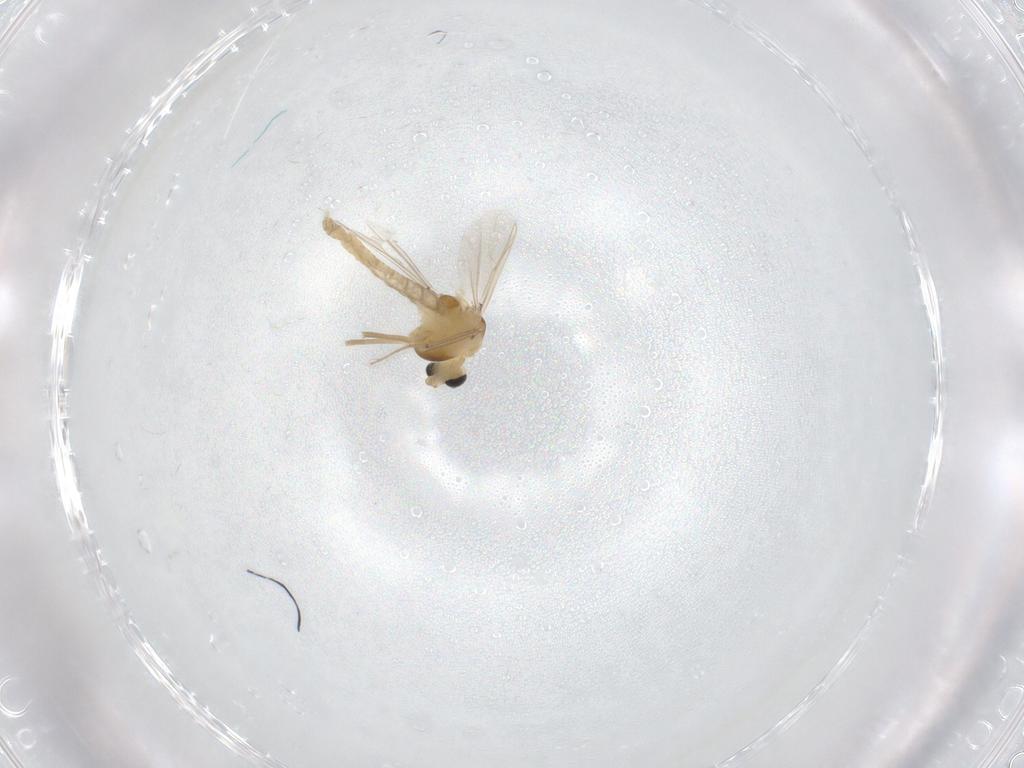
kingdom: Animalia
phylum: Arthropoda
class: Insecta
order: Diptera
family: Chironomidae
